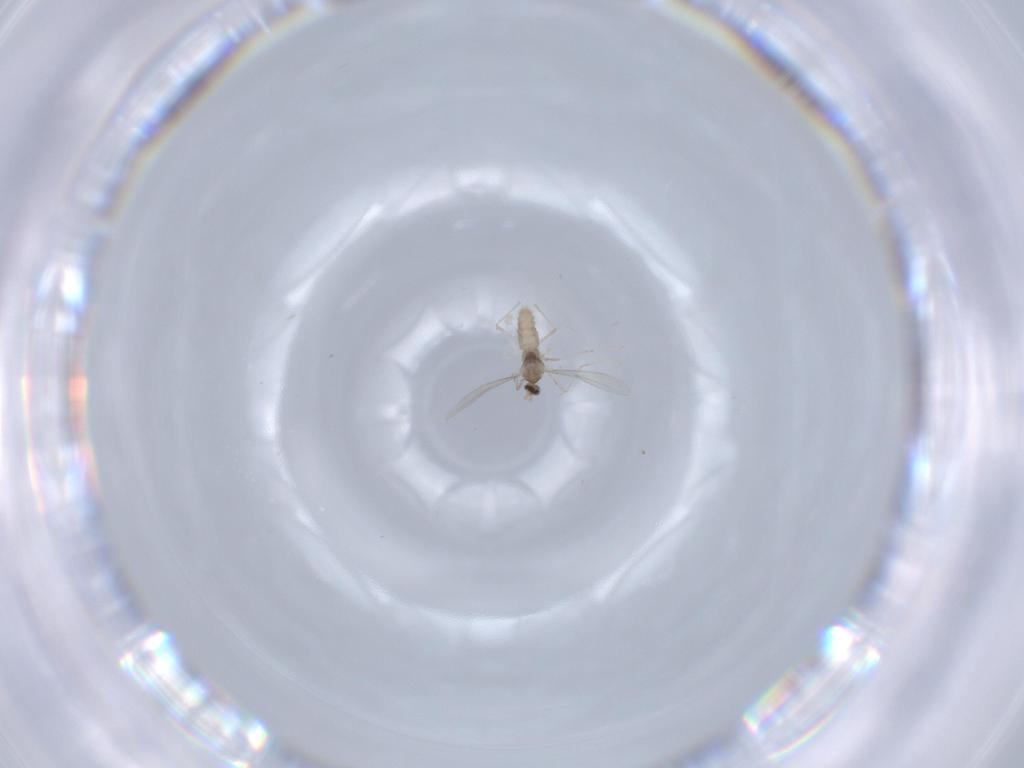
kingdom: Animalia
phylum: Arthropoda
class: Insecta
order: Diptera
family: Cecidomyiidae
